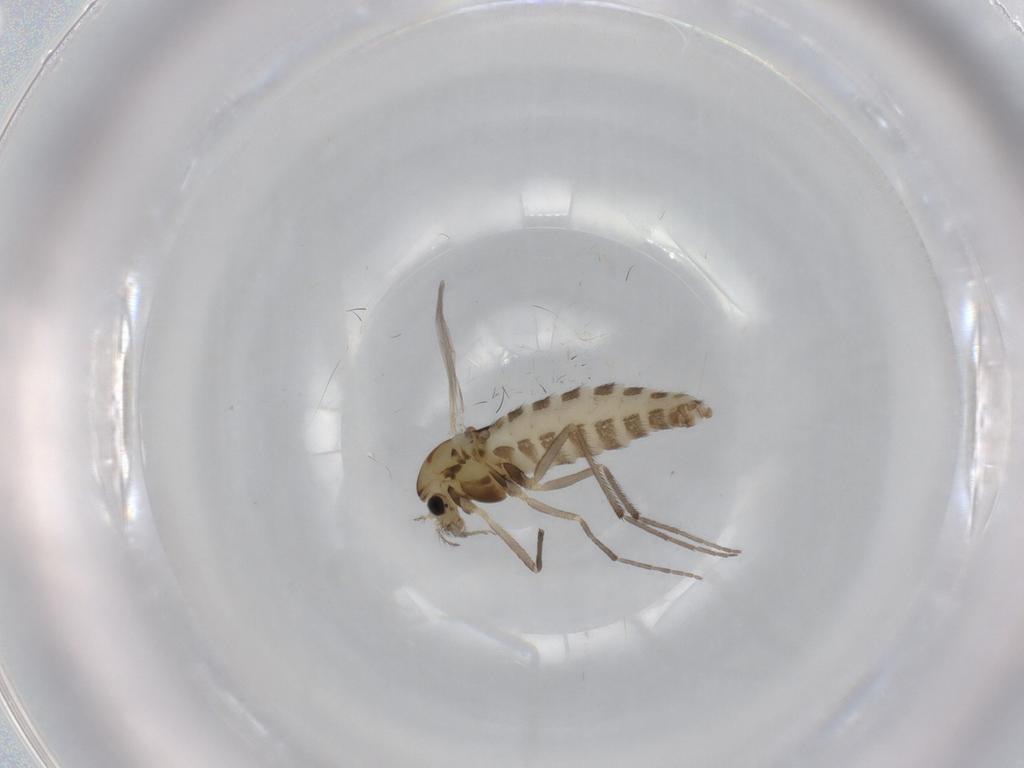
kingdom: Animalia
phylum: Arthropoda
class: Insecta
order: Diptera
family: Chironomidae
